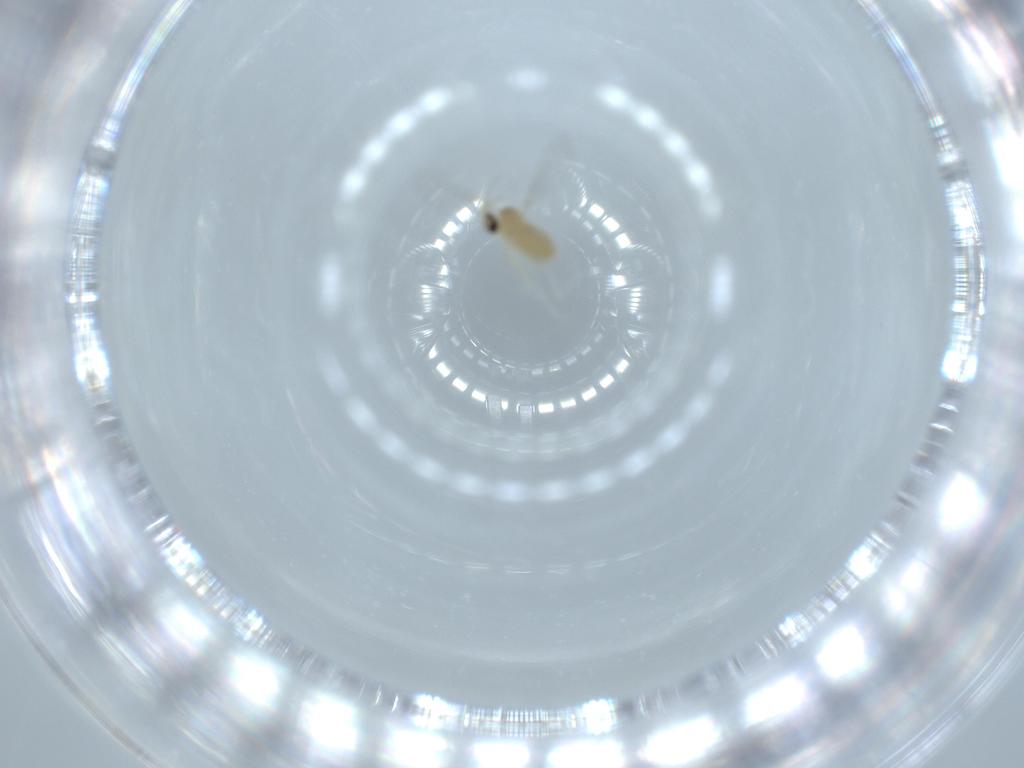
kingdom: Animalia
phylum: Arthropoda
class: Insecta
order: Diptera
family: Cecidomyiidae
